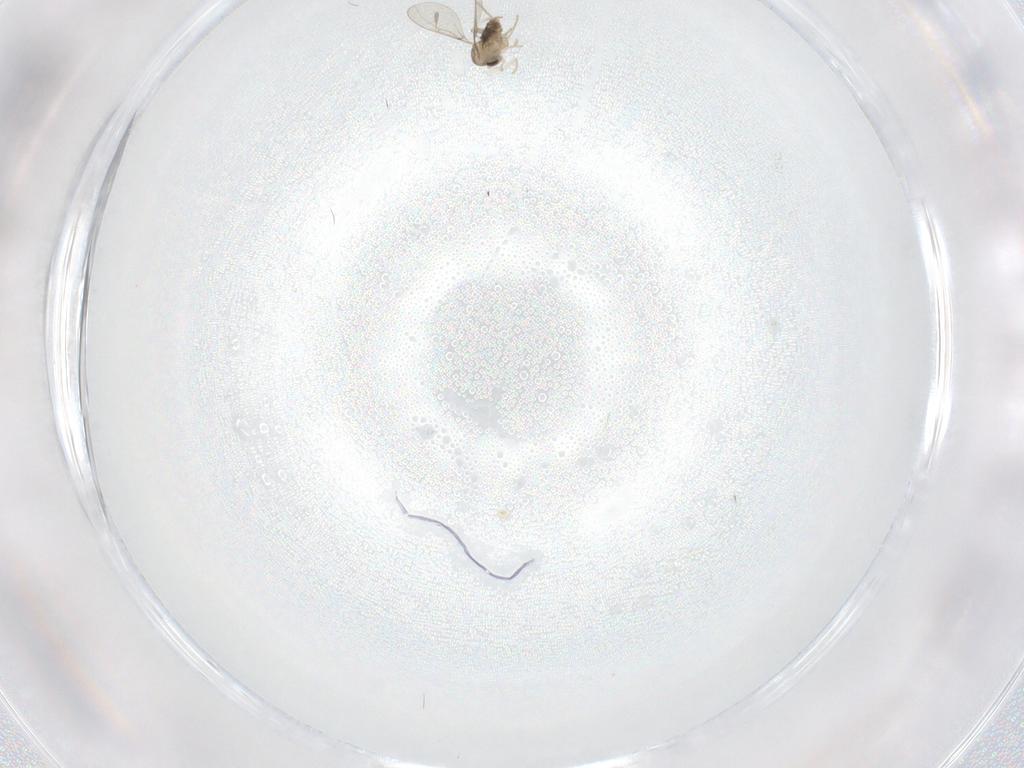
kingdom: Animalia
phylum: Arthropoda
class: Insecta
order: Diptera
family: Cecidomyiidae
